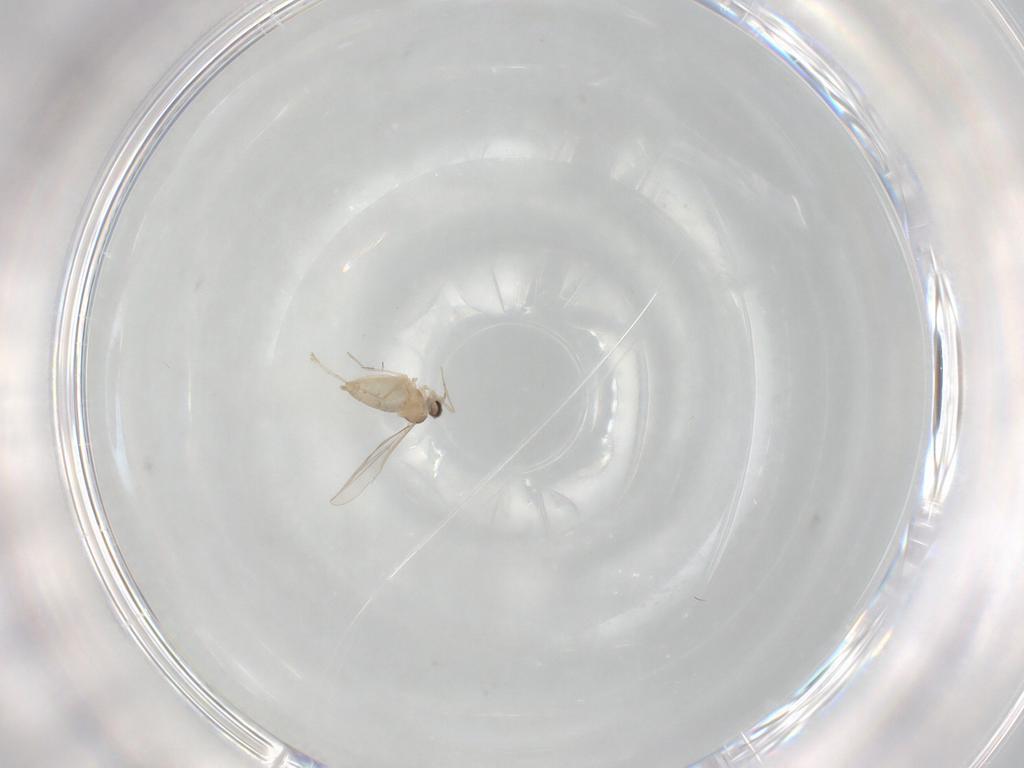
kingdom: Animalia
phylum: Arthropoda
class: Insecta
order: Diptera
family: Cecidomyiidae
